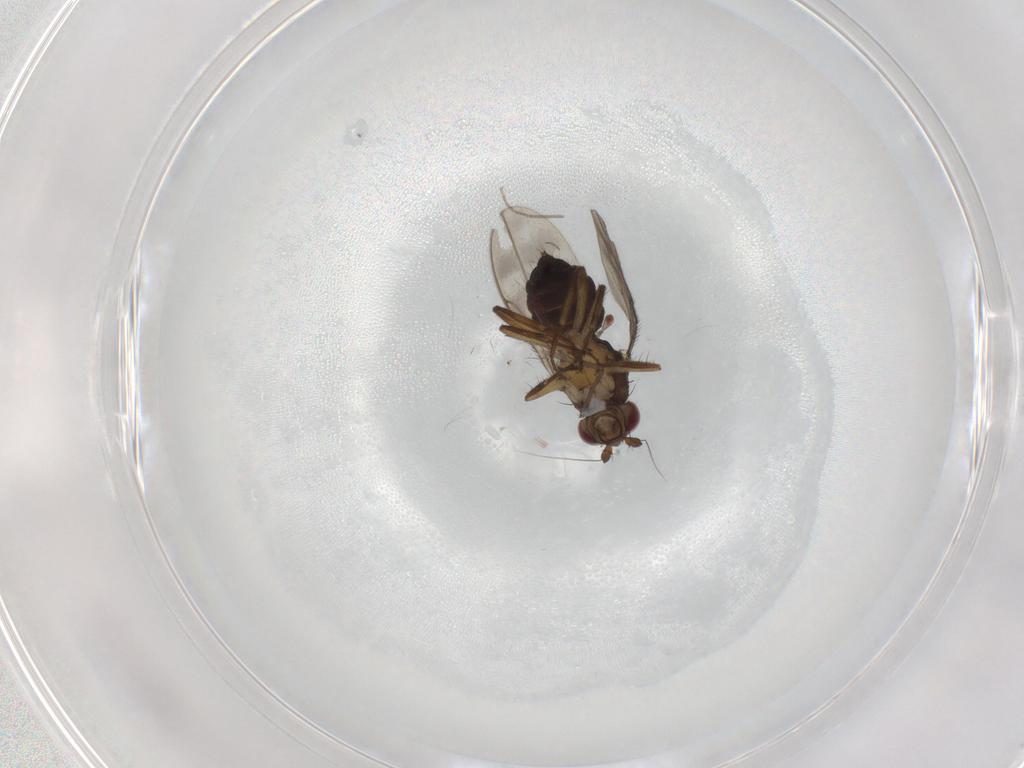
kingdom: Animalia
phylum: Arthropoda
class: Insecta
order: Diptera
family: Sphaeroceridae
